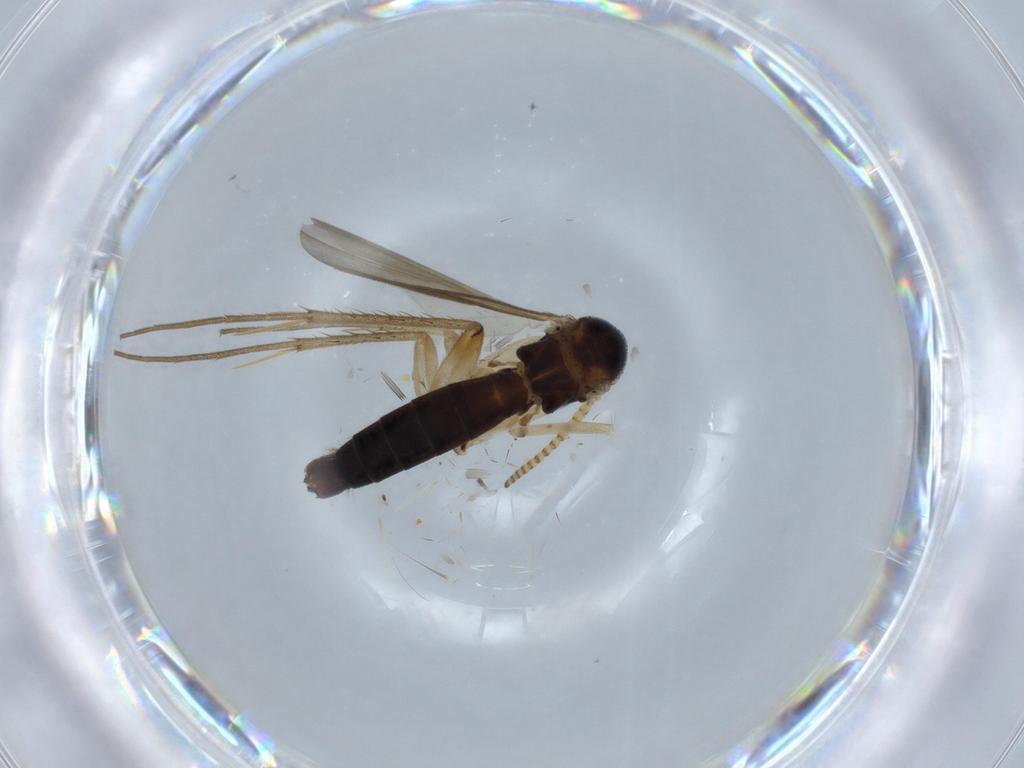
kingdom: Animalia
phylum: Arthropoda
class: Insecta
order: Diptera
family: Mycetophilidae
